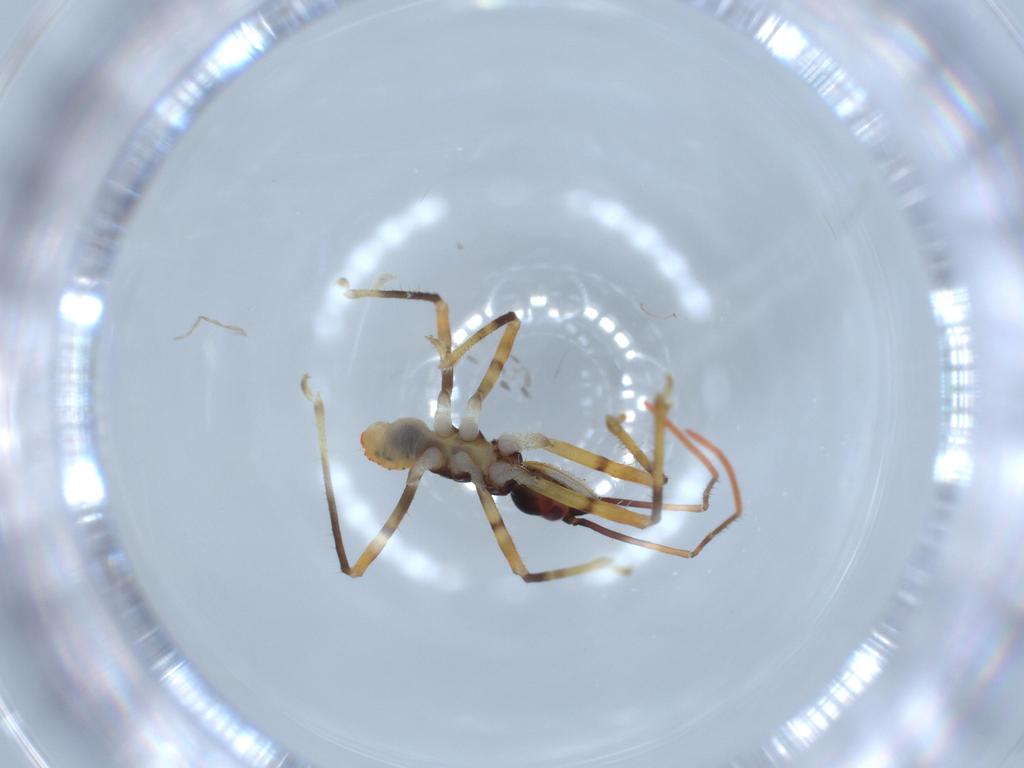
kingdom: Animalia
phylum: Arthropoda
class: Insecta
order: Hemiptera
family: Reduviidae
